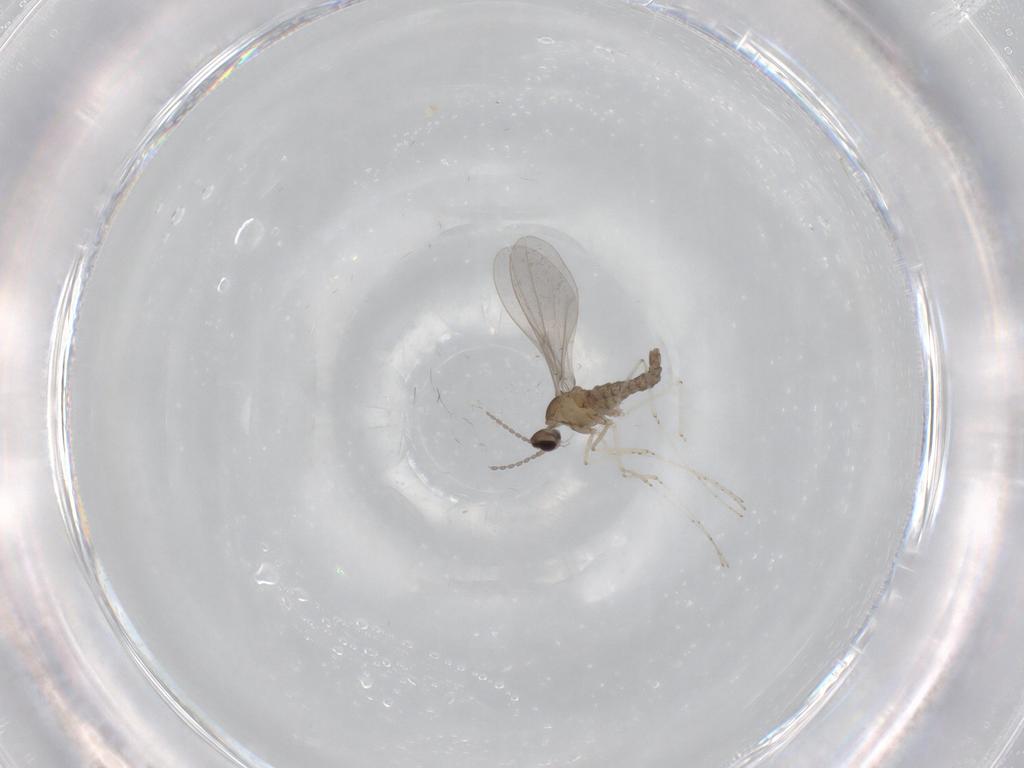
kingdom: Animalia
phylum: Arthropoda
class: Insecta
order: Diptera
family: Cecidomyiidae
